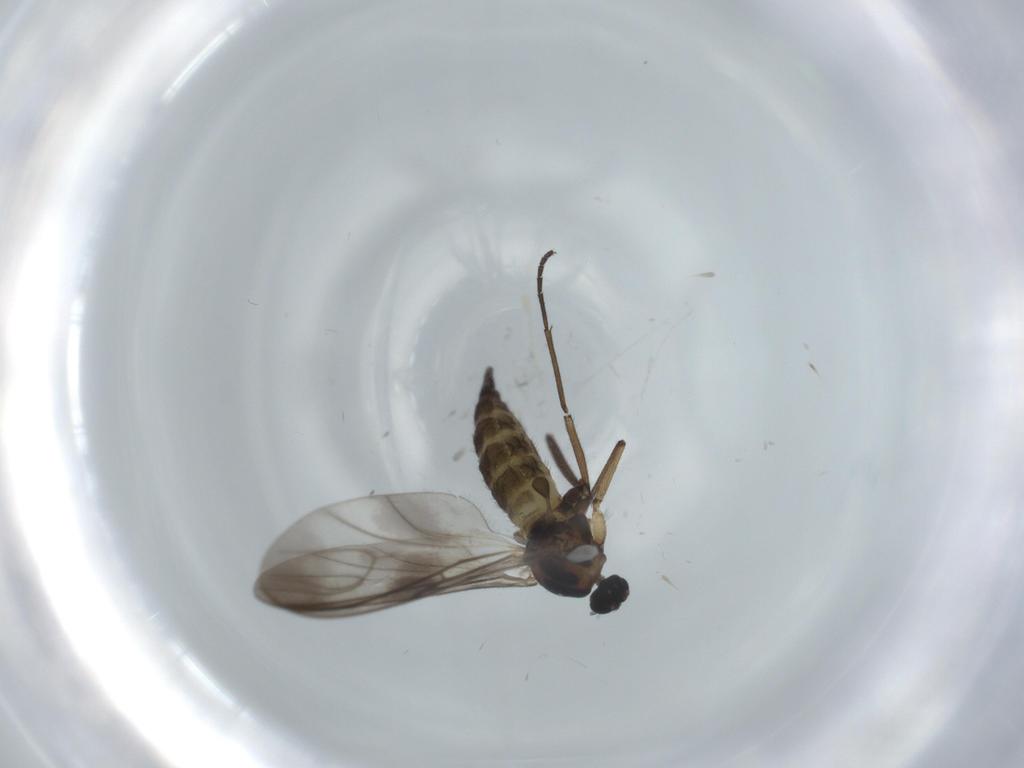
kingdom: Animalia
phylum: Arthropoda
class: Insecta
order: Diptera
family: Sciaridae
